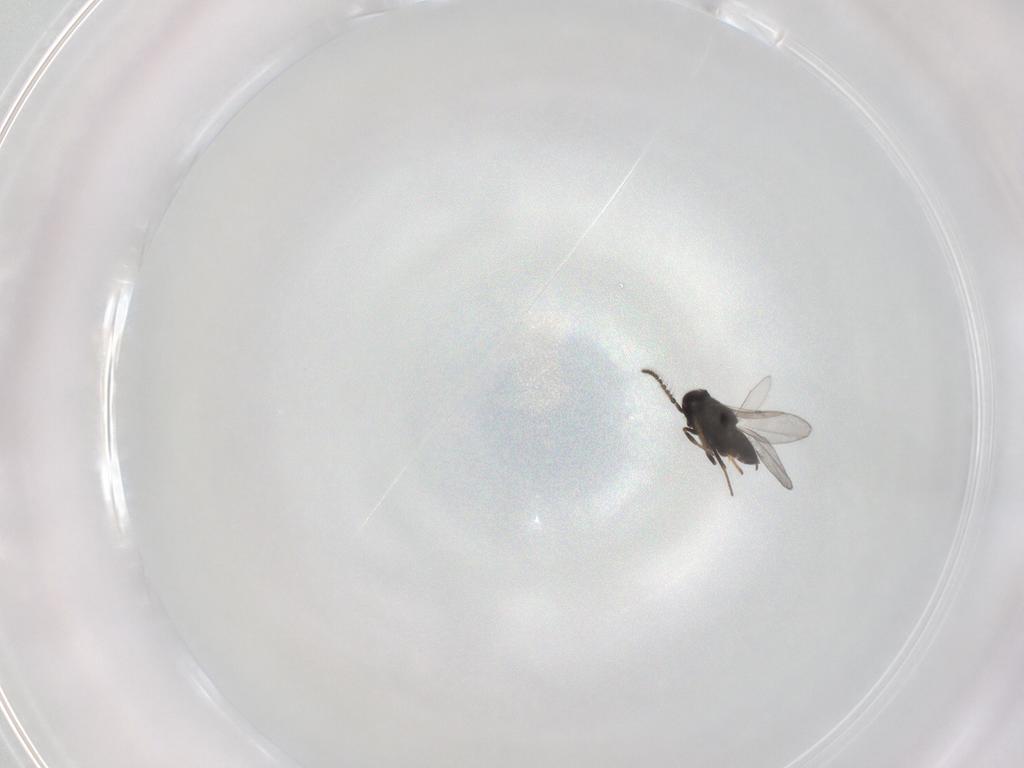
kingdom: Animalia
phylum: Arthropoda
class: Insecta
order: Hymenoptera
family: Encyrtidae
